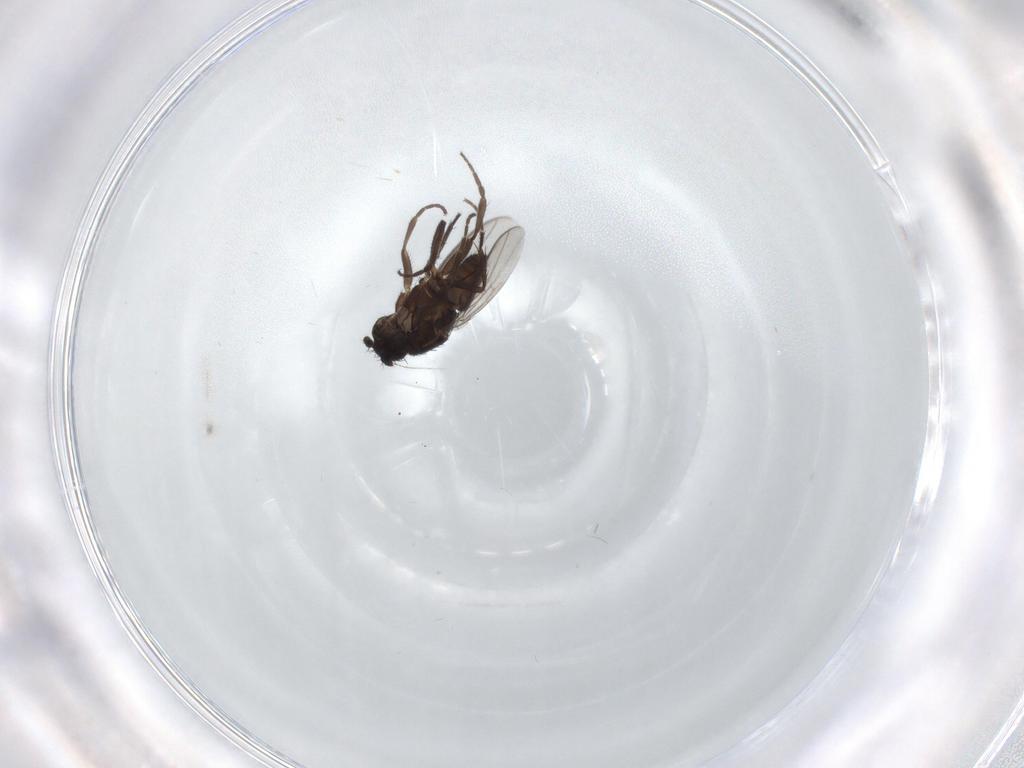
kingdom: Animalia
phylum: Arthropoda
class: Insecta
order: Diptera
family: Sphaeroceridae
